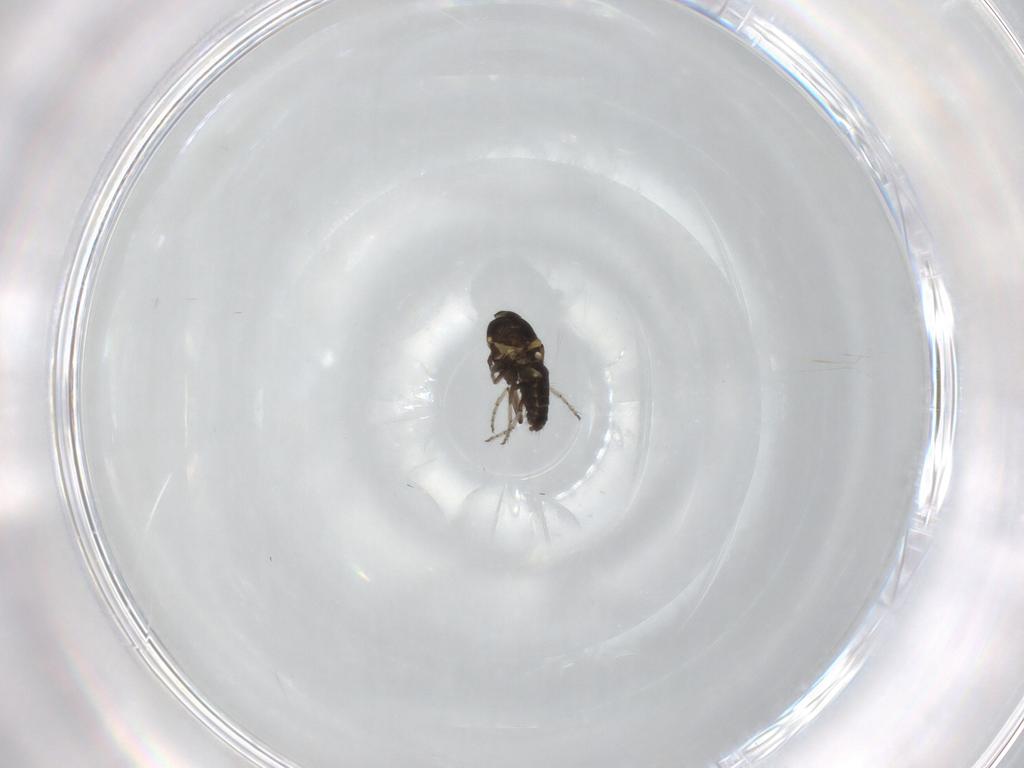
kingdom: Animalia
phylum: Arthropoda
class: Insecta
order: Diptera
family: Ceratopogonidae
